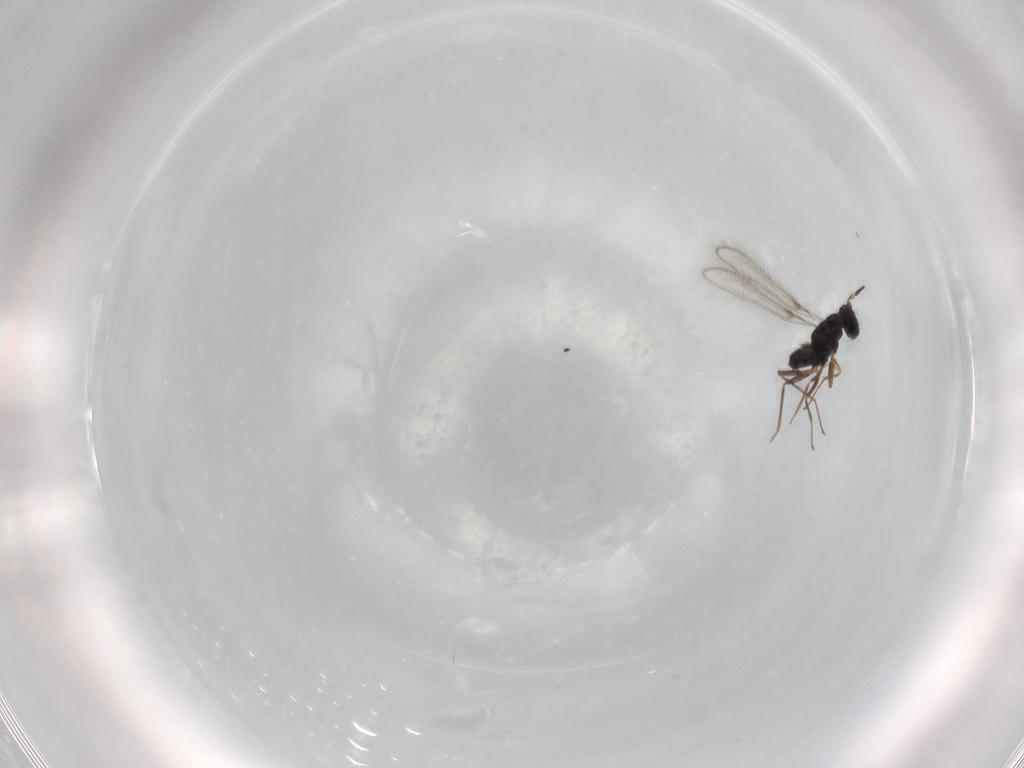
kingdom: Animalia
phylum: Arthropoda
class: Insecta
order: Hymenoptera
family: Mymaridae
